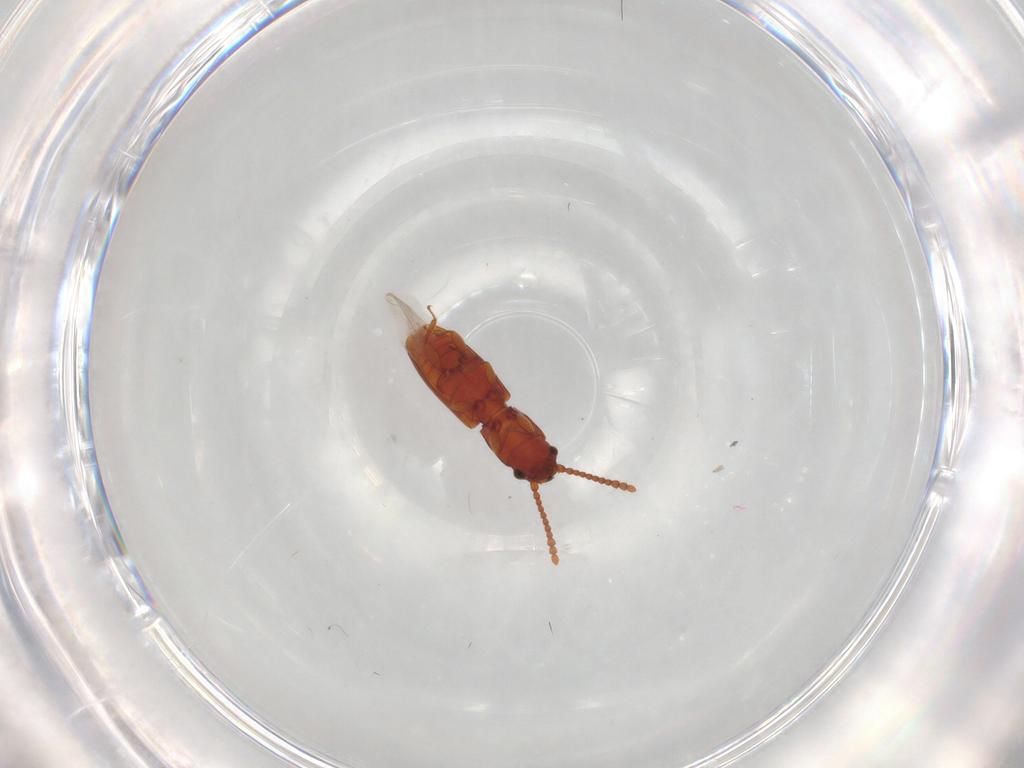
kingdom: Animalia
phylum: Arthropoda
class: Insecta
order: Coleoptera
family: Laemophloeidae
